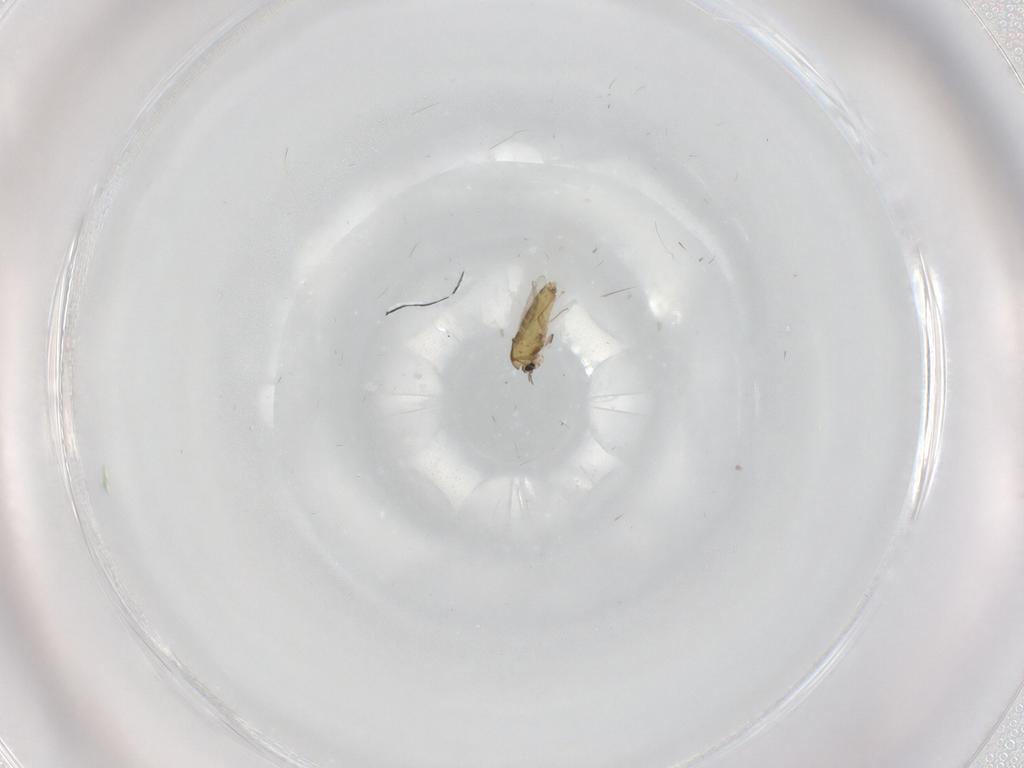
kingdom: Animalia
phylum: Arthropoda
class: Insecta
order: Diptera
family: Chironomidae
